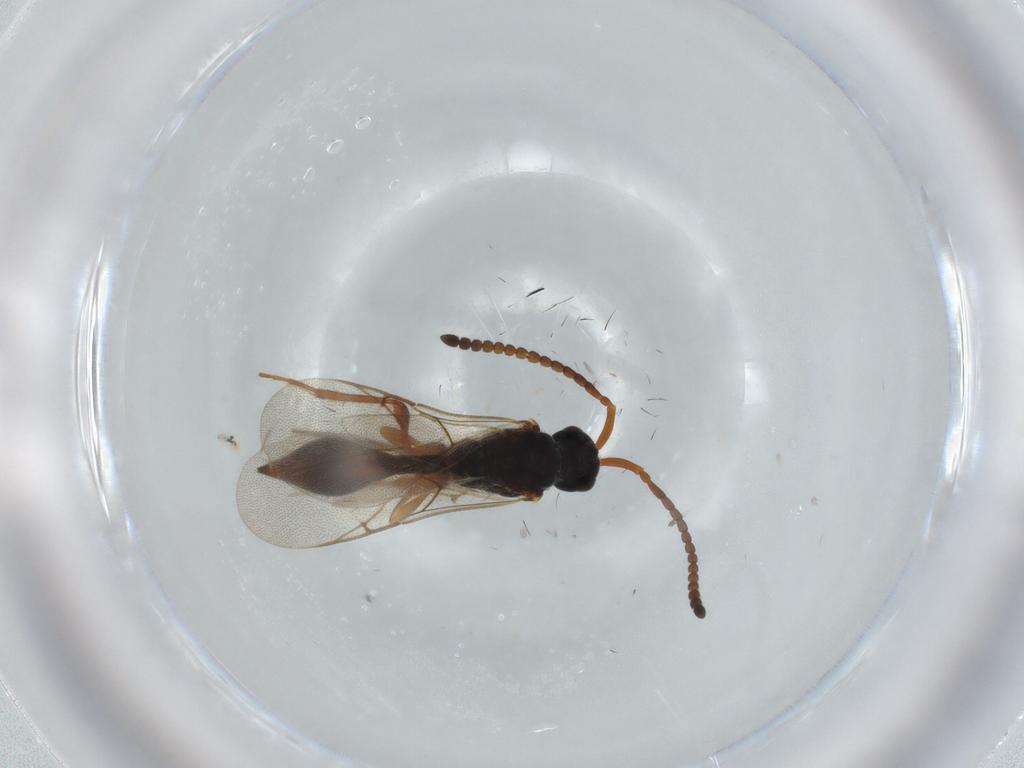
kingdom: Animalia
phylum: Arthropoda
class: Insecta
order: Hymenoptera
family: Diapriidae
